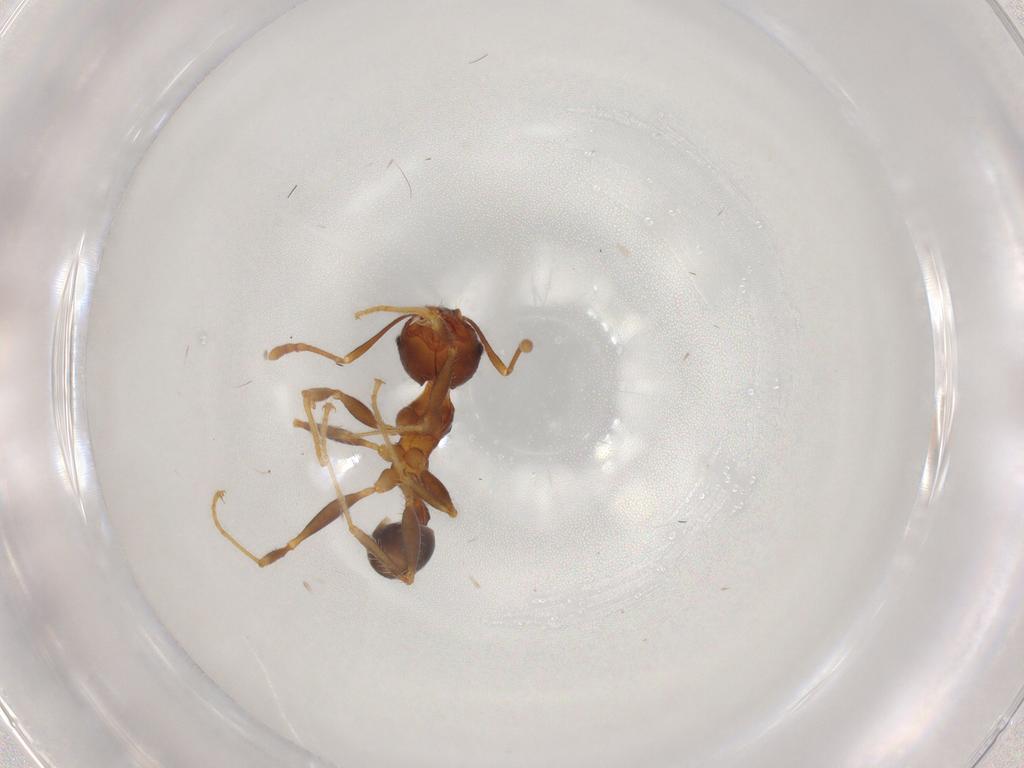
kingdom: Animalia
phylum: Arthropoda
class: Insecta
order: Hymenoptera
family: Formicidae
